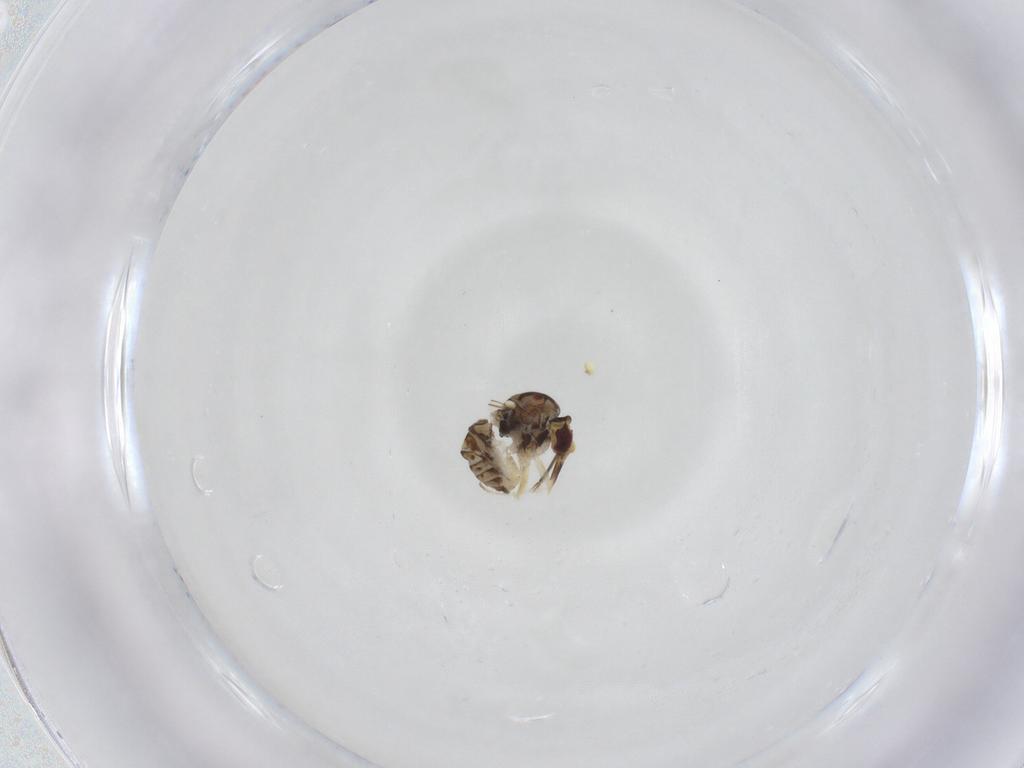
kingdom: Animalia
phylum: Arthropoda
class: Insecta
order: Diptera
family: Bombyliidae
